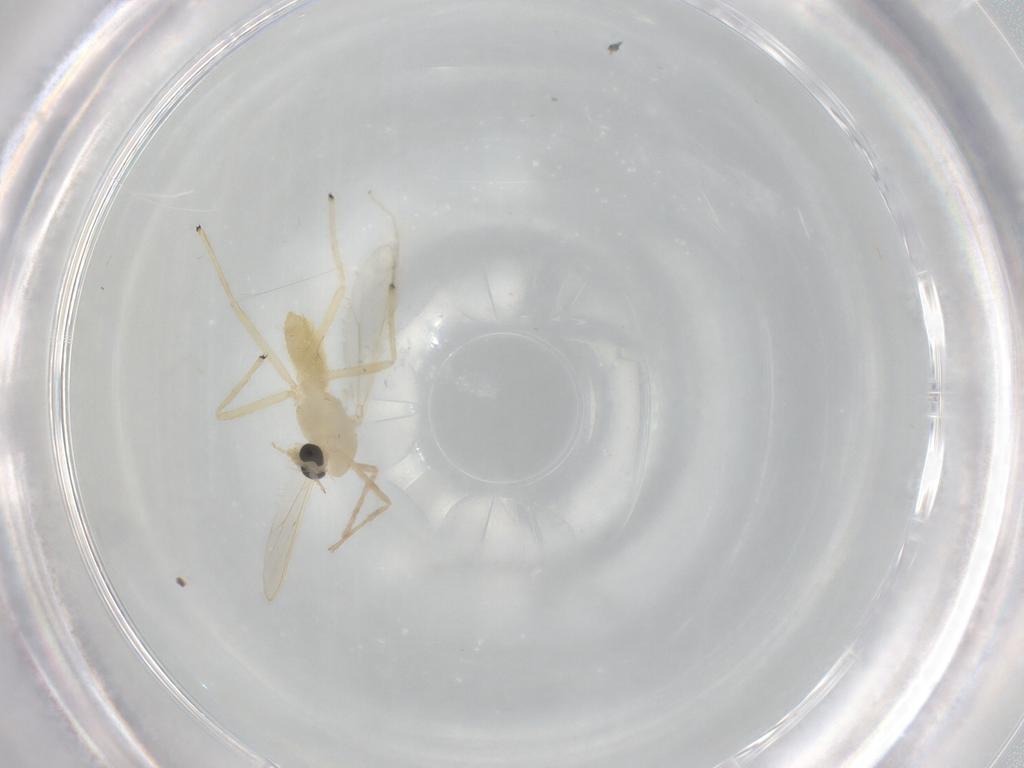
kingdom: Animalia
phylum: Arthropoda
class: Insecta
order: Diptera
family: Chironomidae
